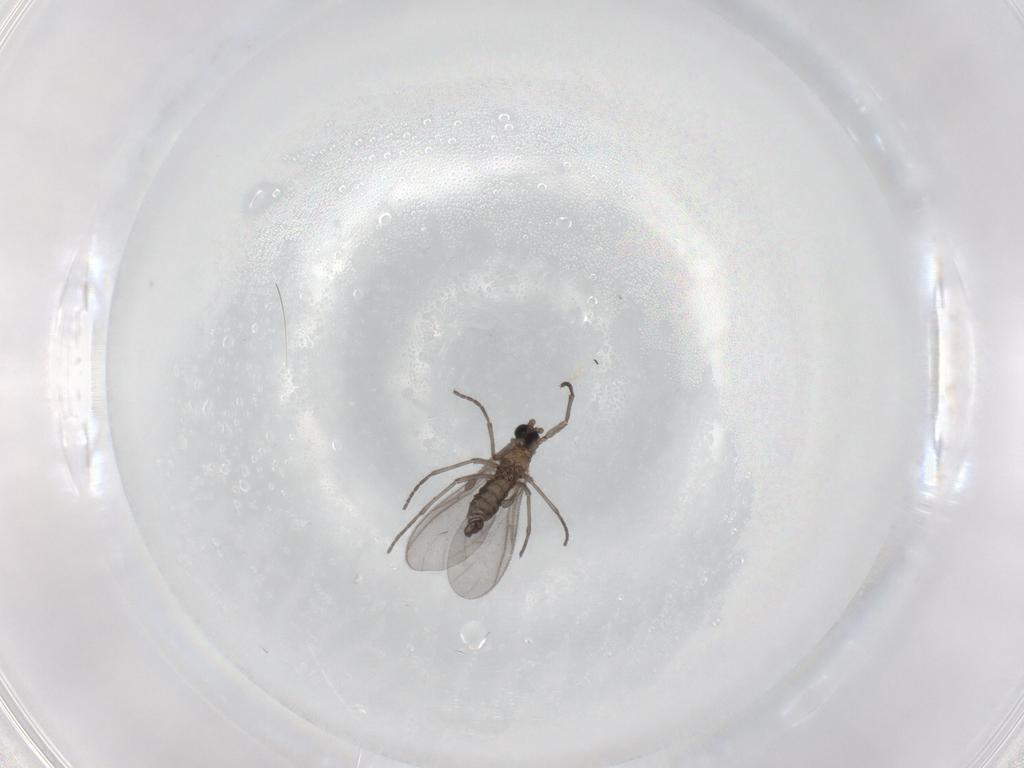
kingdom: Animalia
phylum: Arthropoda
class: Insecta
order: Diptera
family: Sciaridae
